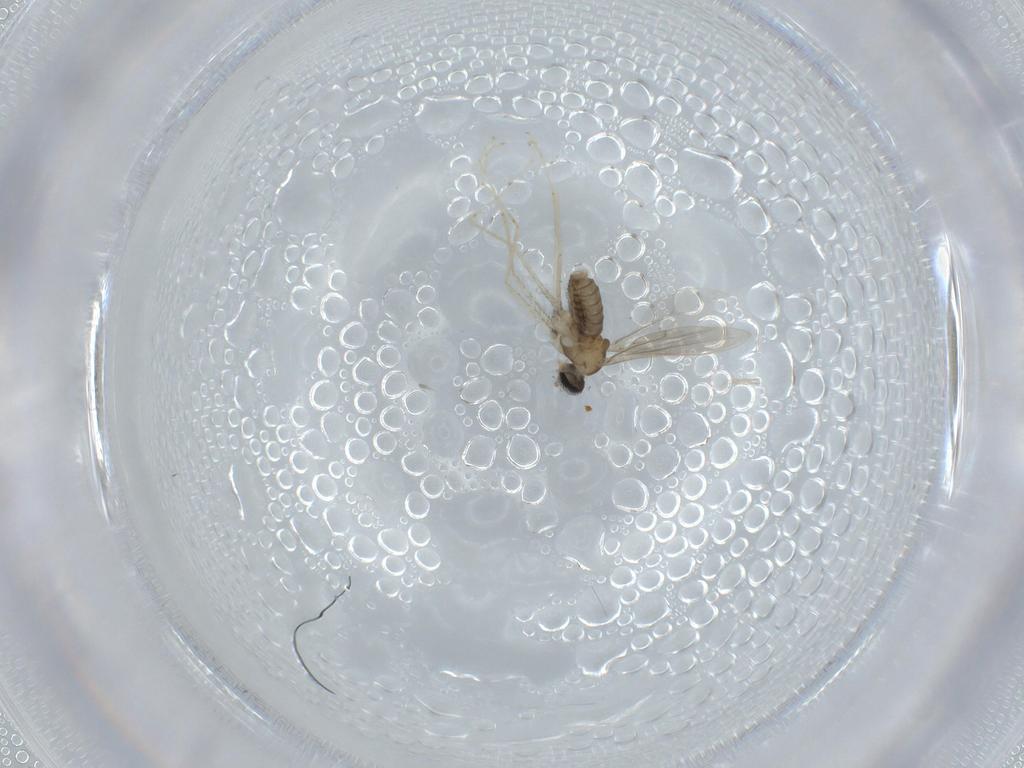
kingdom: Animalia
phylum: Arthropoda
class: Insecta
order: Diptera
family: Cecidomyiidae
